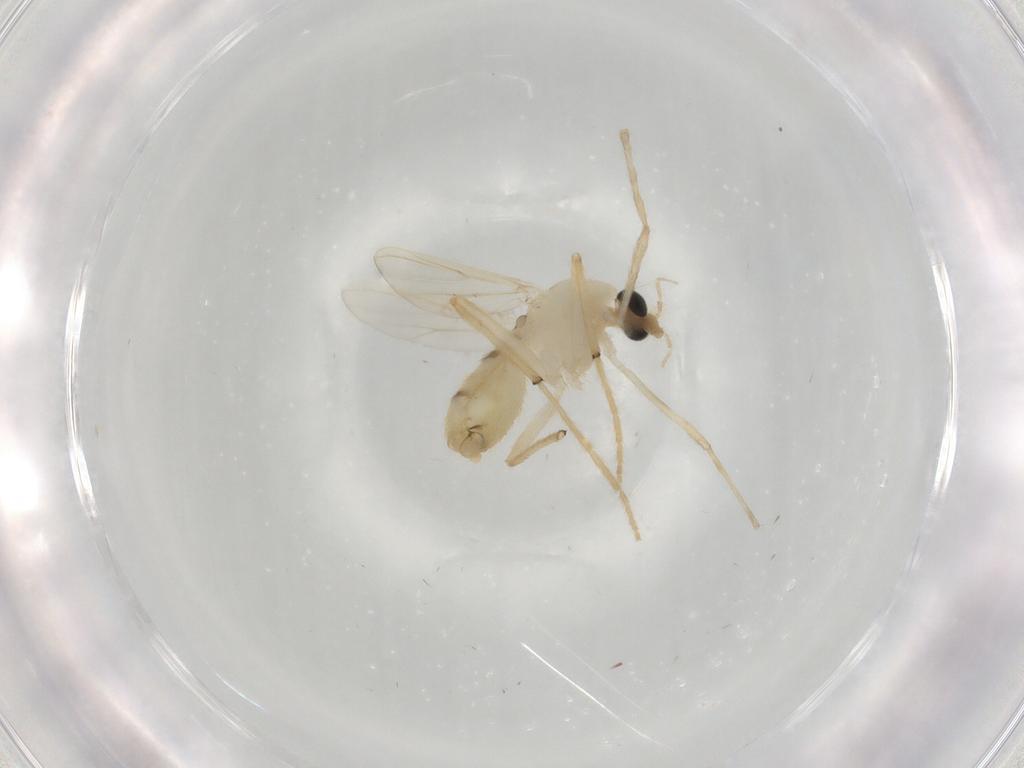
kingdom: Animalia
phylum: Arthropoda
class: Insecta
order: Diptera
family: Chironomidae
